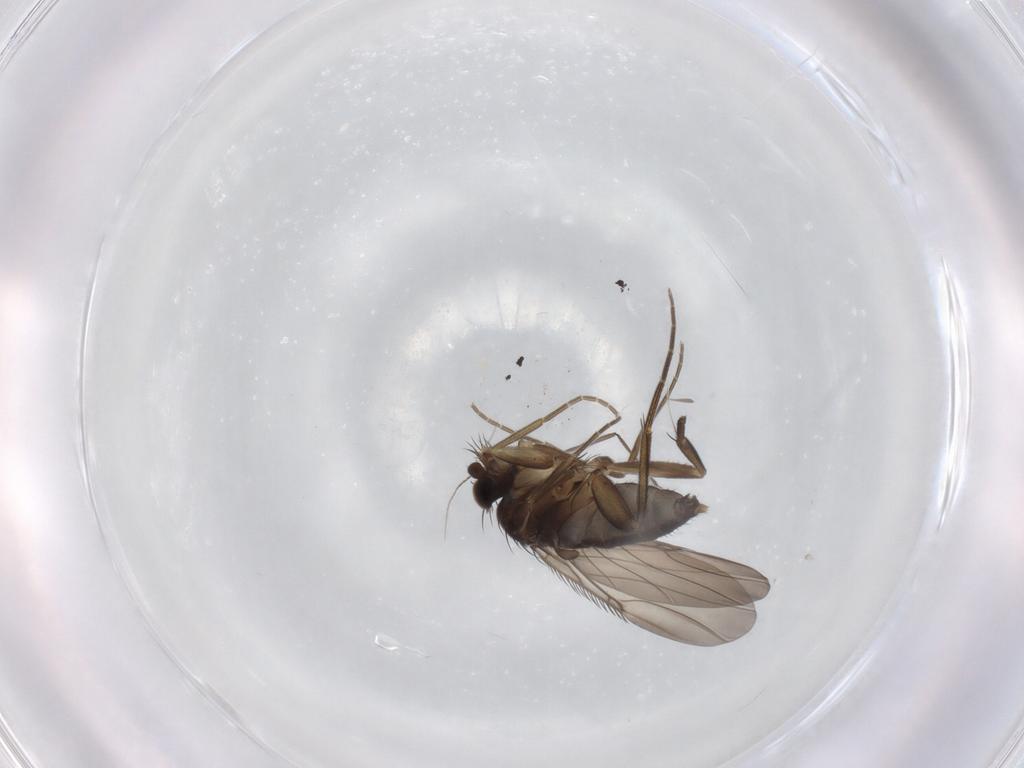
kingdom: Animalia
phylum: Arthropoda
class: Insecta
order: Diptera
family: Phoridae
